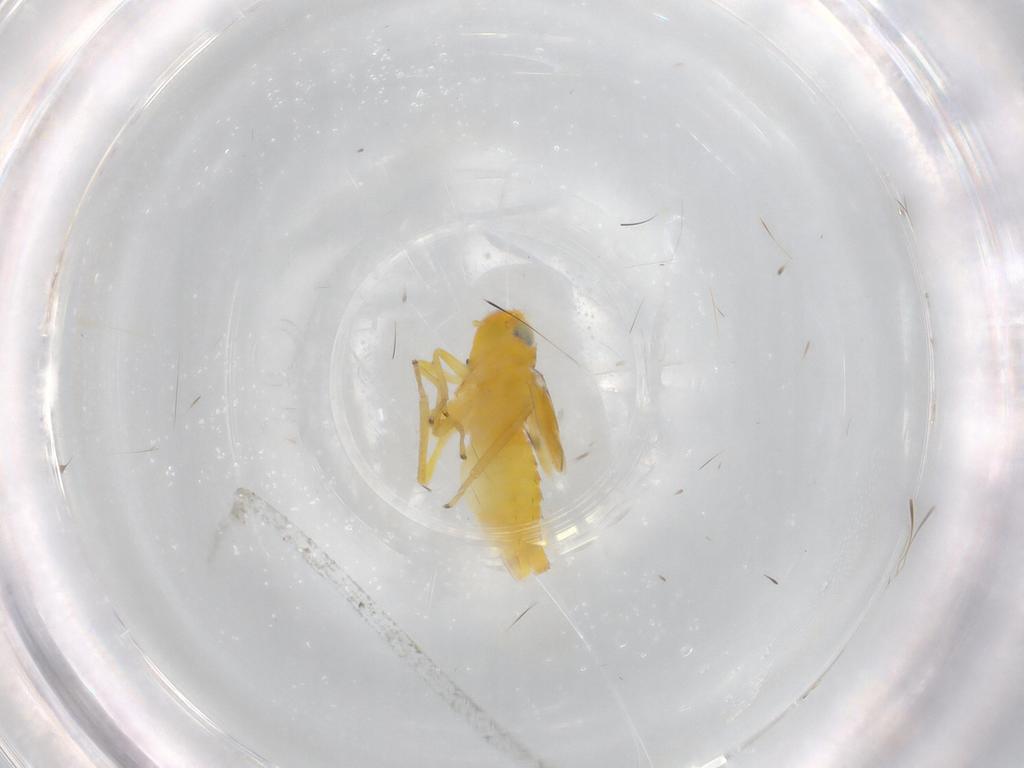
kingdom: Animalia
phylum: Arthropoda
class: Insecta
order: Hemiptera
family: Cicadellidae
